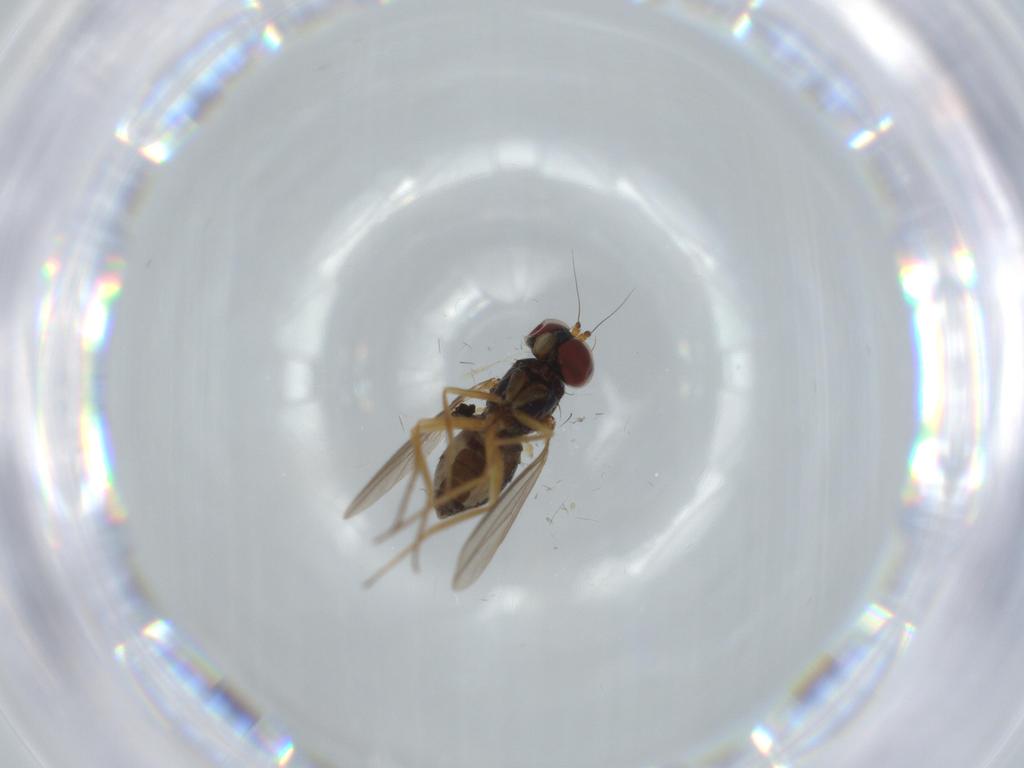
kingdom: Animalia
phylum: Arthropoda
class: Insecta
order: Diptera
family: Dolichopodidae
